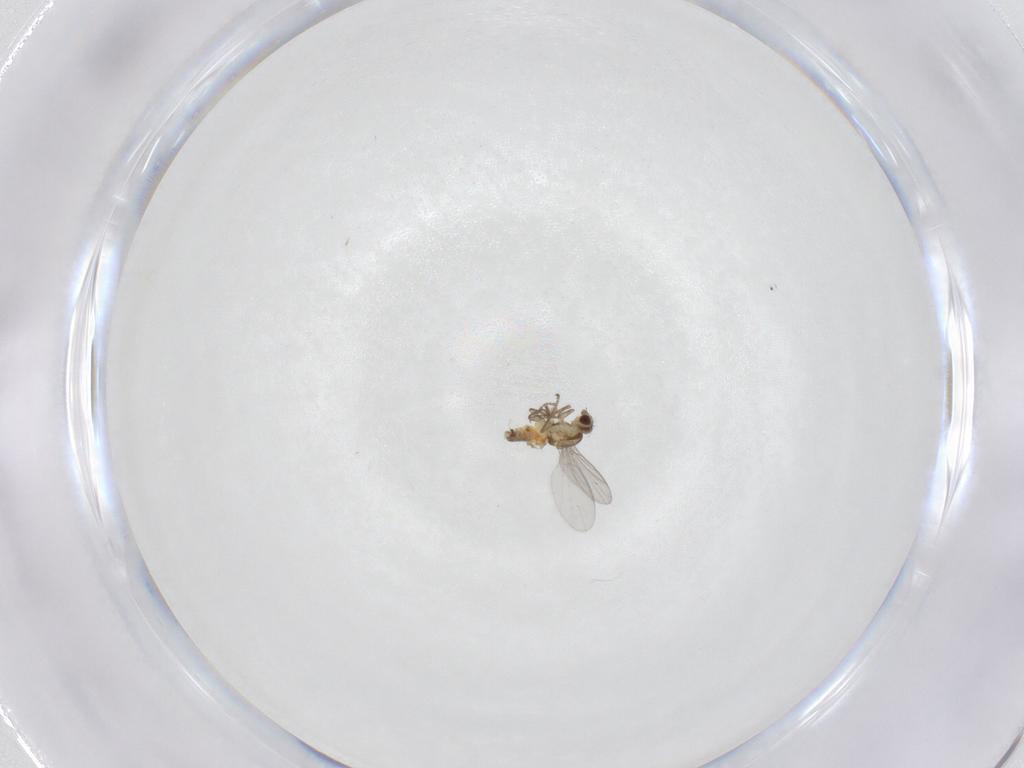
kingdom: Animalia
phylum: Arthropoda
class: Insecta
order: Diptera
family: Agromyzidae
